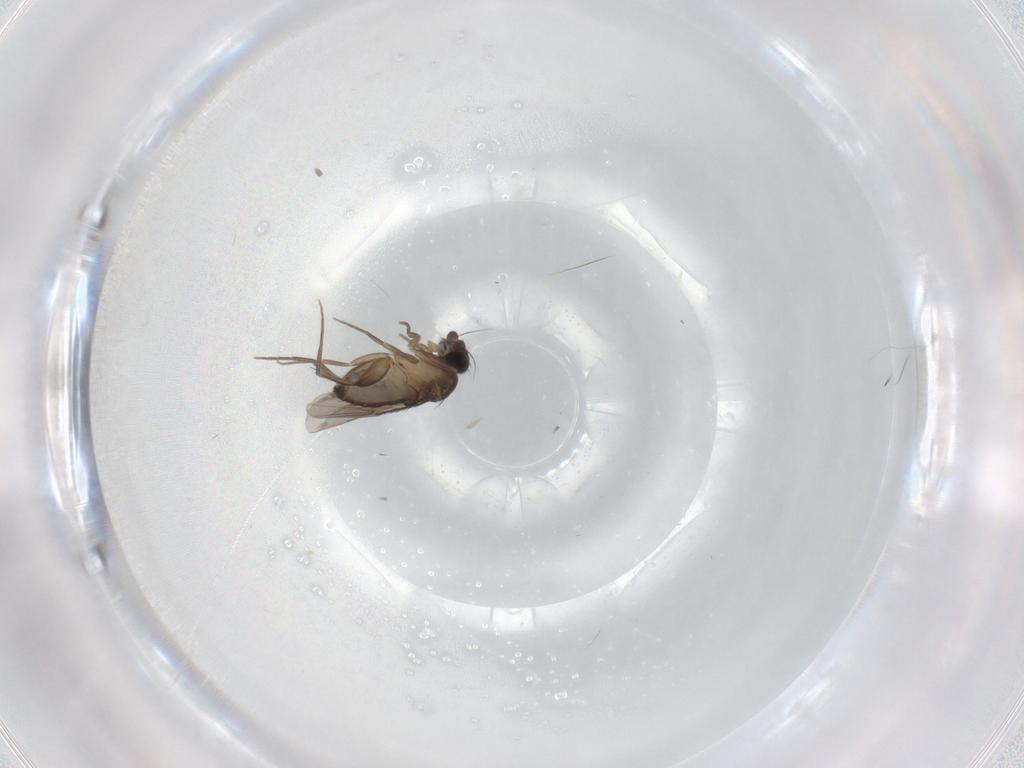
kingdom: Animalia
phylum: Arthropoda
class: Insecta
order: Diptera
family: Phoridae
